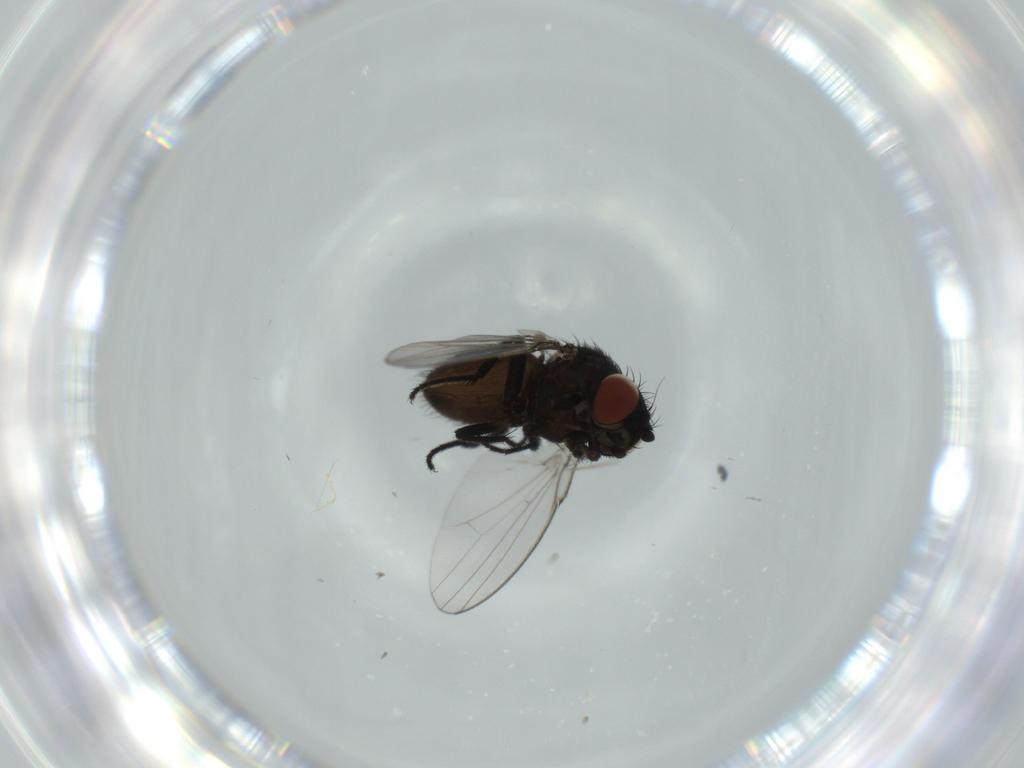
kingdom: Animalia
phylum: Arthropoda
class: Insecta
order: Diptera
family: Milichiidae
